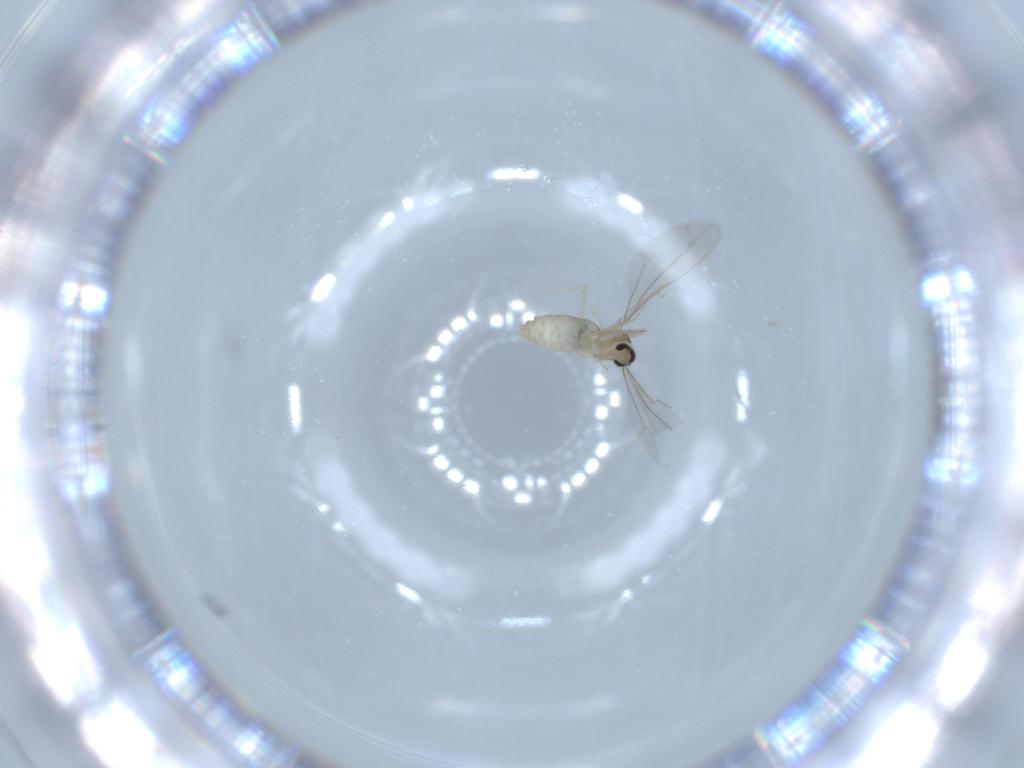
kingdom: Animalia
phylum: Arthropoda
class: Insecta
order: Diptera
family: Cecidomyiidae
